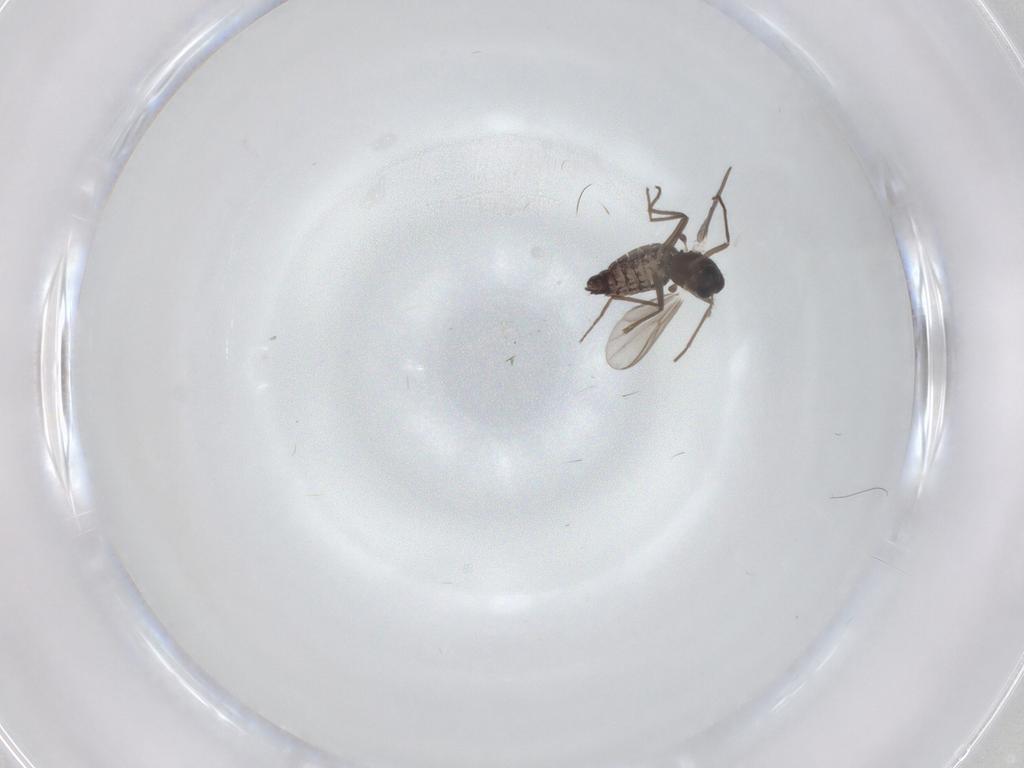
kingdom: Animalia
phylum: Arthropoda
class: Insecta
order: Diptera
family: Chironomidae
